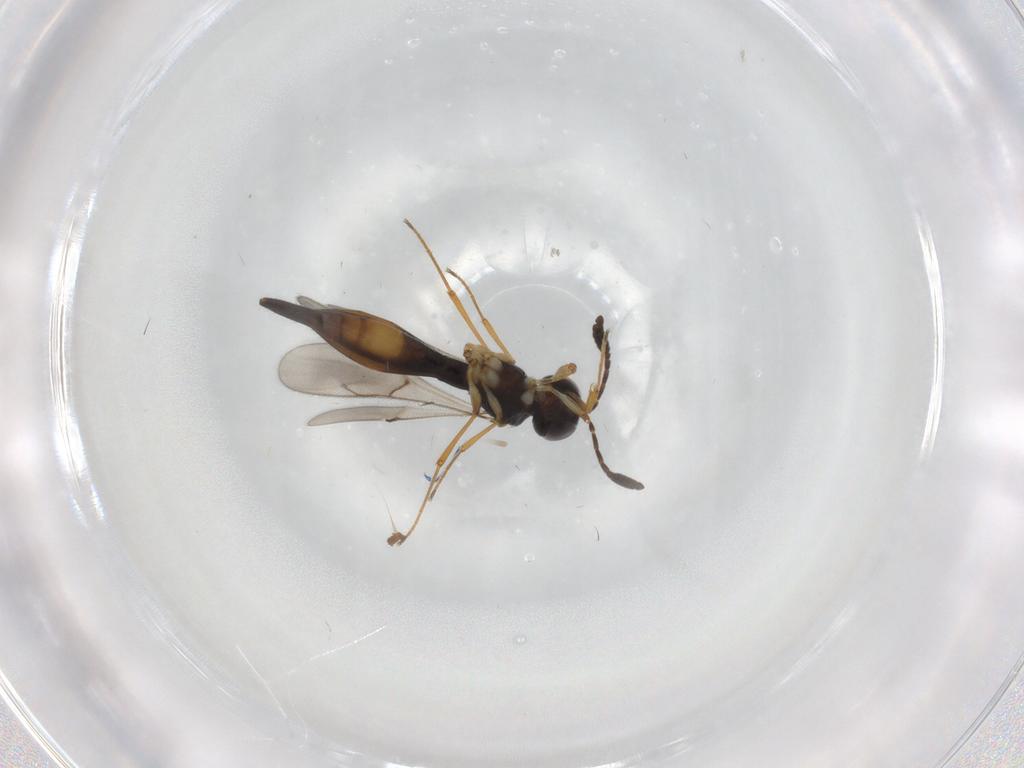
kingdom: Animalia
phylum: Arthropoda
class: Insecta
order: Hymenoptera
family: Scelionidae
